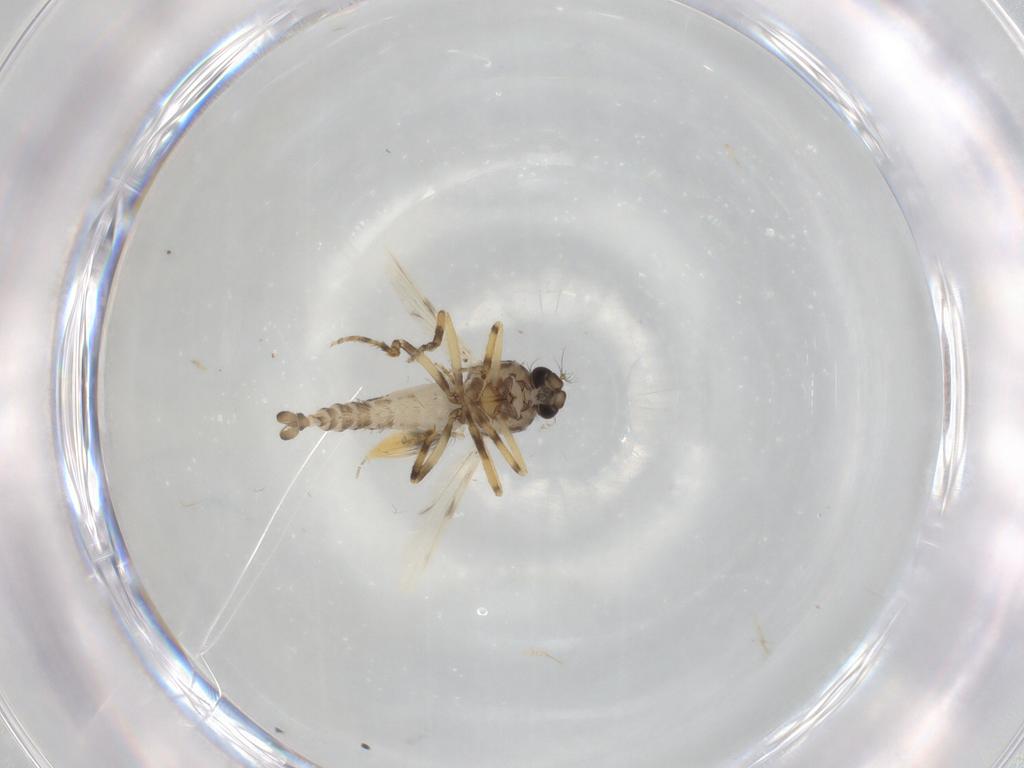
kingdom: Animalia
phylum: Arthropoda
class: Insecta
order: Diptera
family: Ceratopogonidae
